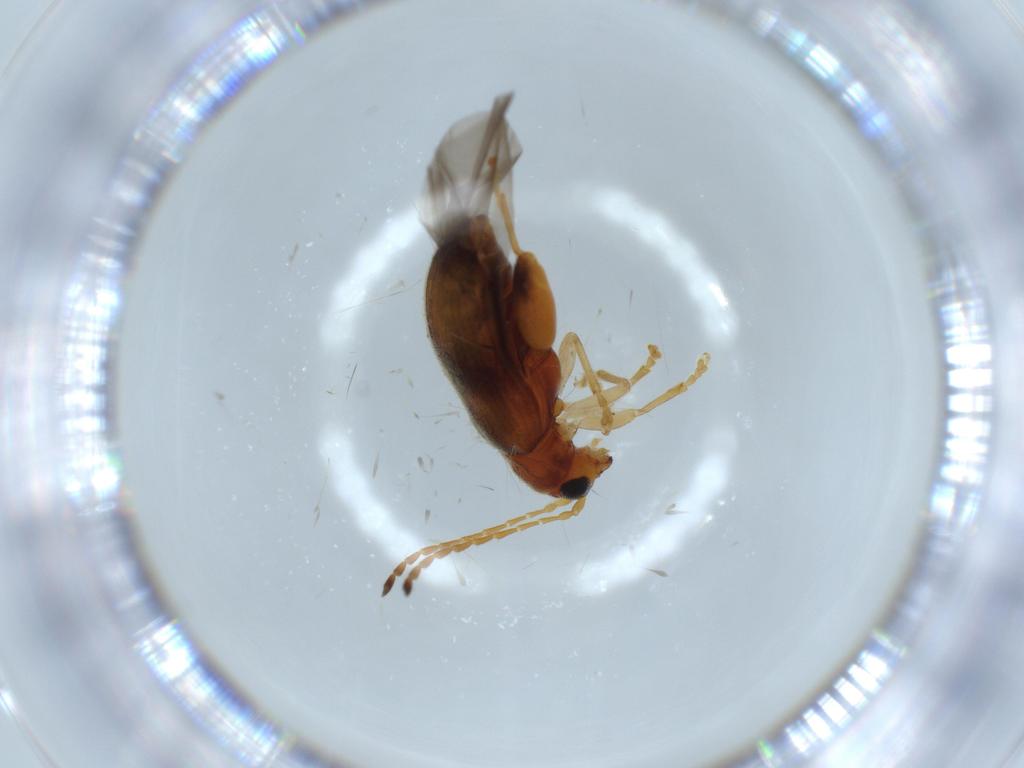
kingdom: Animalia
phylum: Arthropoda
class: Insecta
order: Coleoptera
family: Chrysomelidae
